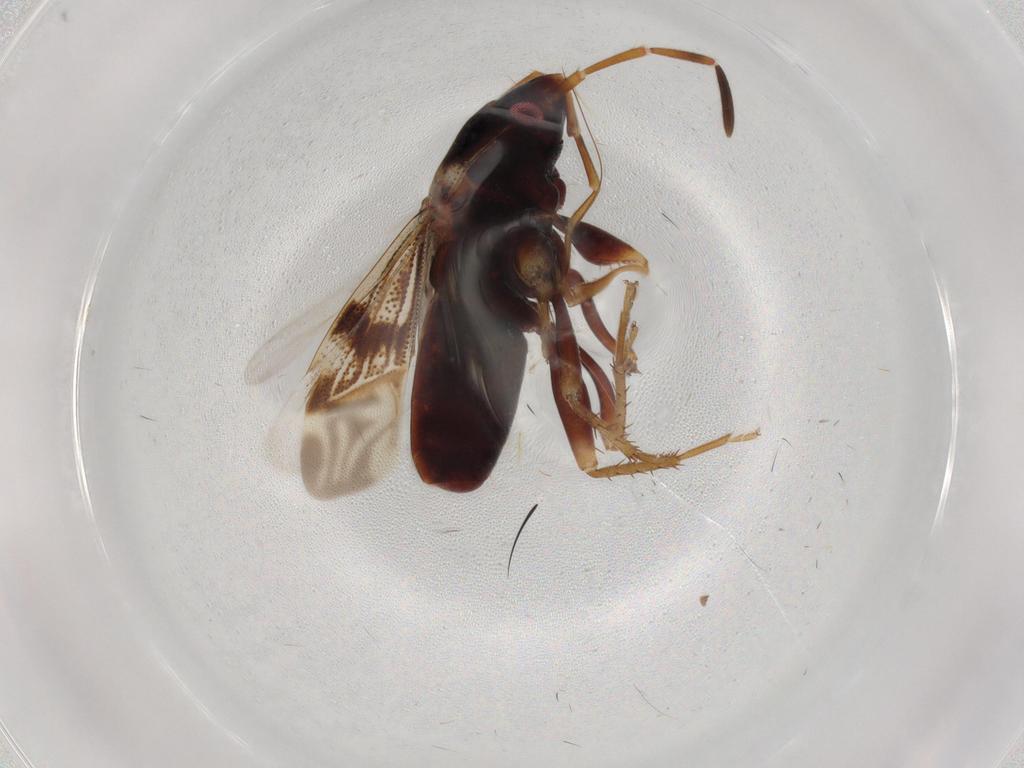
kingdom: Animalia
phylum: Arthropoda
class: Insecta
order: Hemiptera
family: Membracidae
